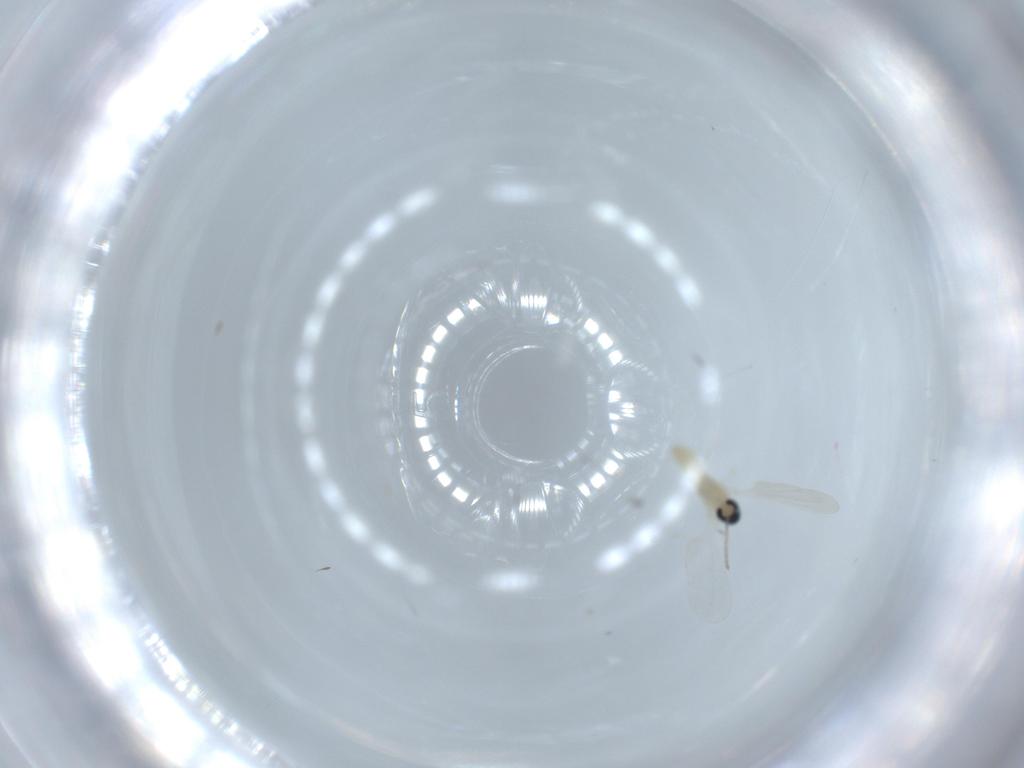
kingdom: Animalia
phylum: Arthropoda
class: Insecta
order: Diptera
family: Cecidomyiidae
